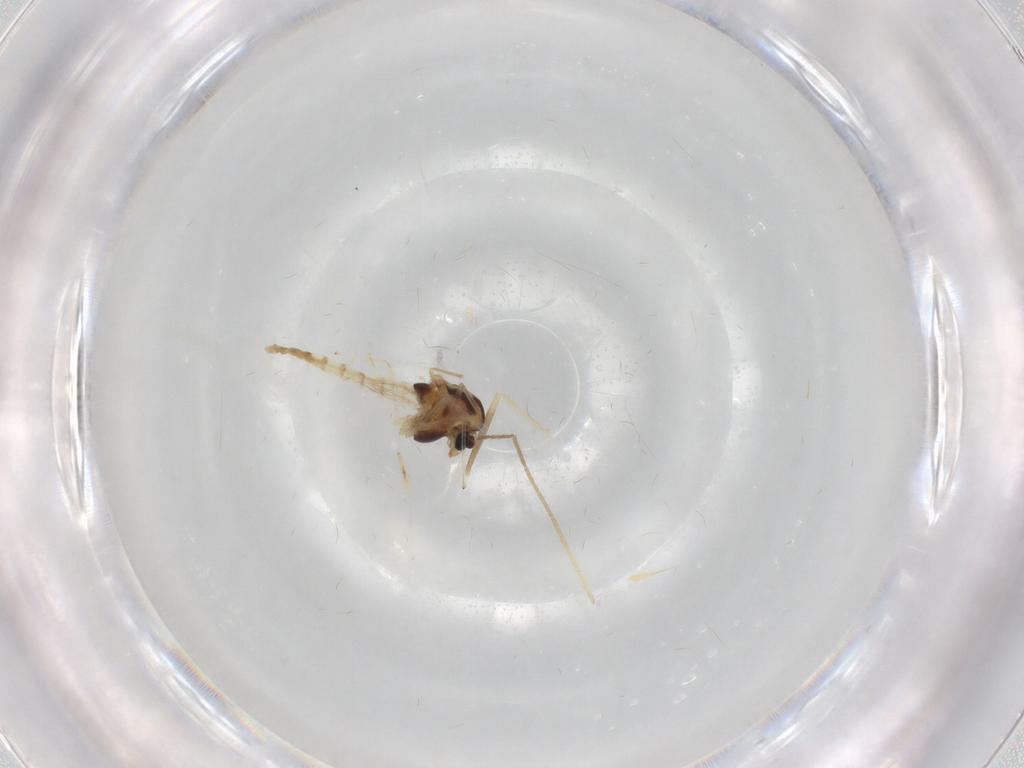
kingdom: Animalia
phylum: Arthropoda
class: Insecta
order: Diptera
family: Chironomidae
